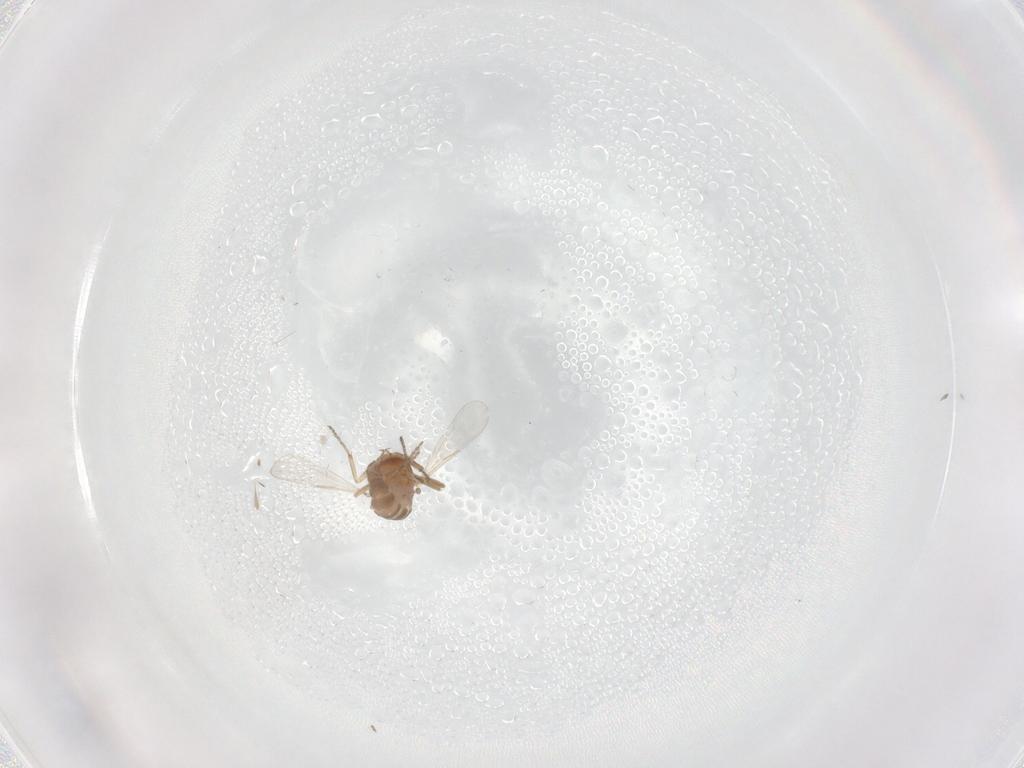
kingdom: Animalia
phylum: Arthropoda
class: Insecta
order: Diptera
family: Ceratopogonidae
